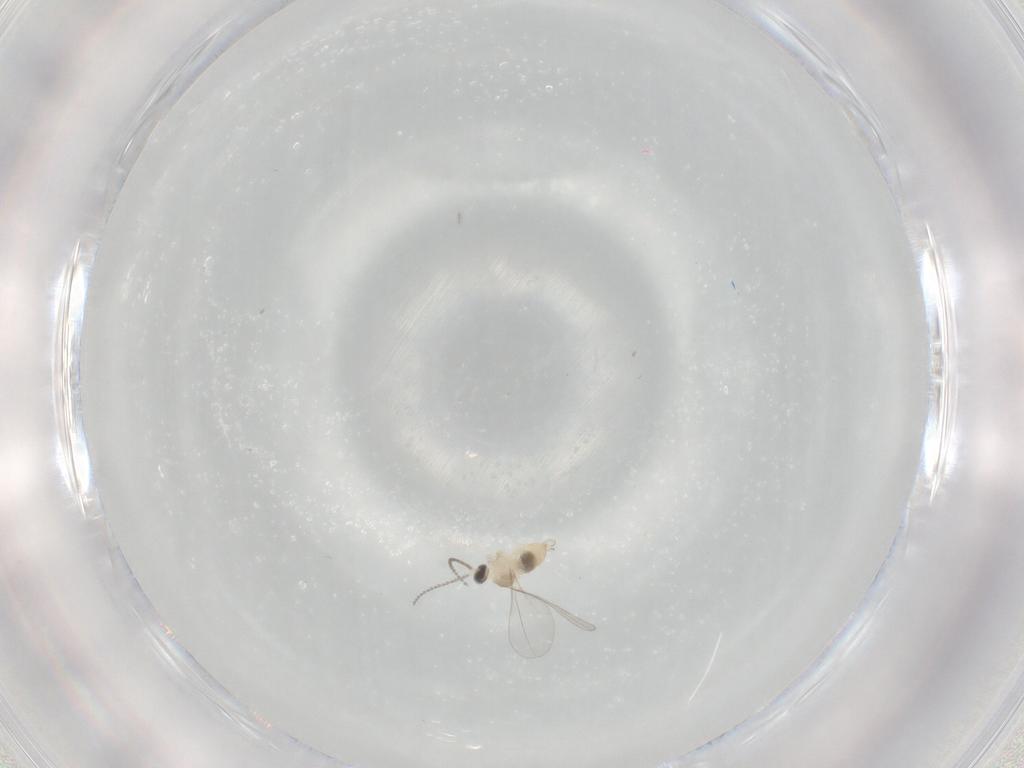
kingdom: Animalia
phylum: Arthropoda
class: Insecta
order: Diptera
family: Cecidomyiidae
